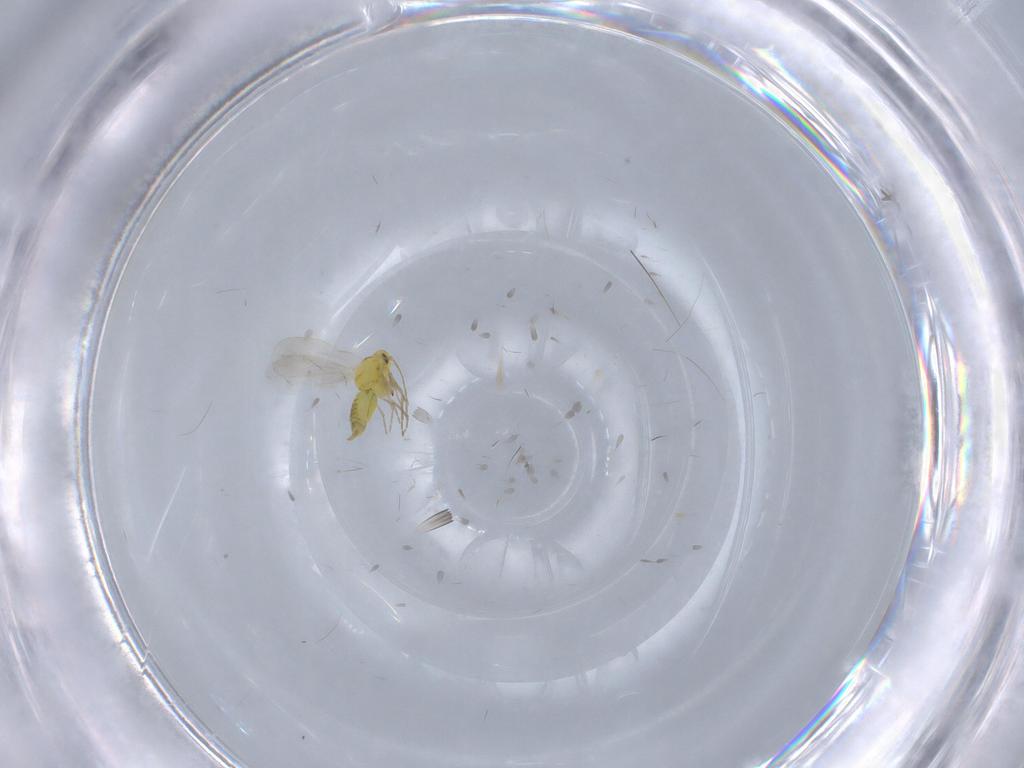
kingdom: Animalia
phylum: Arthropoda
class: Insecta
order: Hemiptera
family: Aleyrodidae
